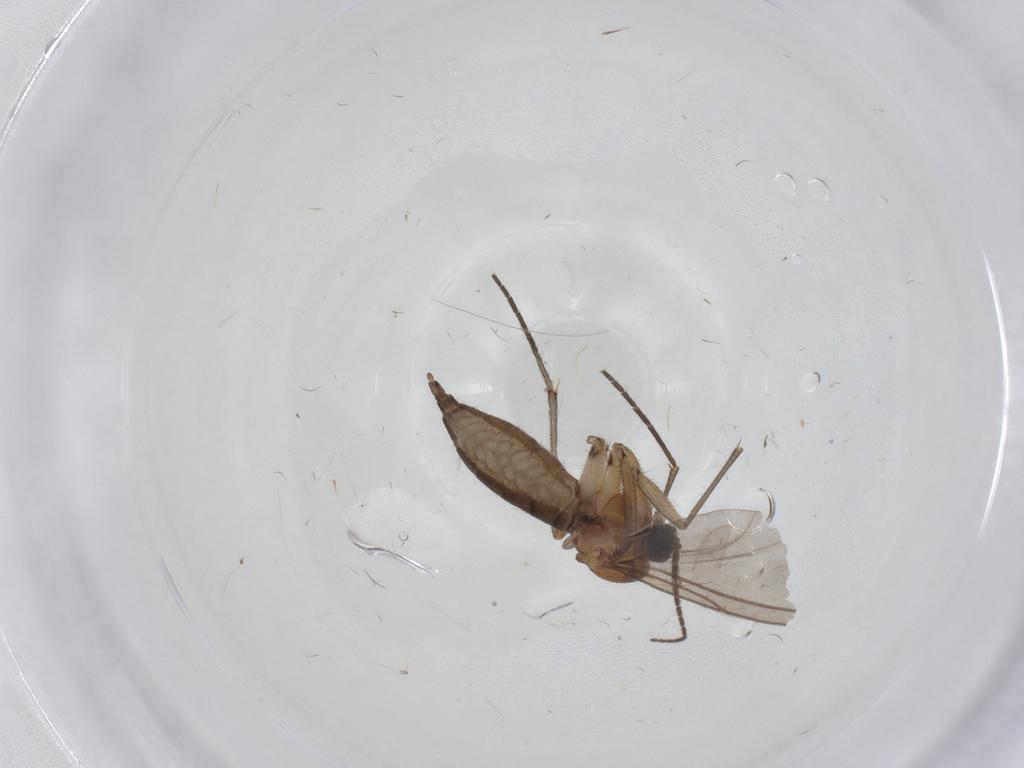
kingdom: Animalia
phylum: Arthropoda
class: Insecta
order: Diptera
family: Sciaridae
